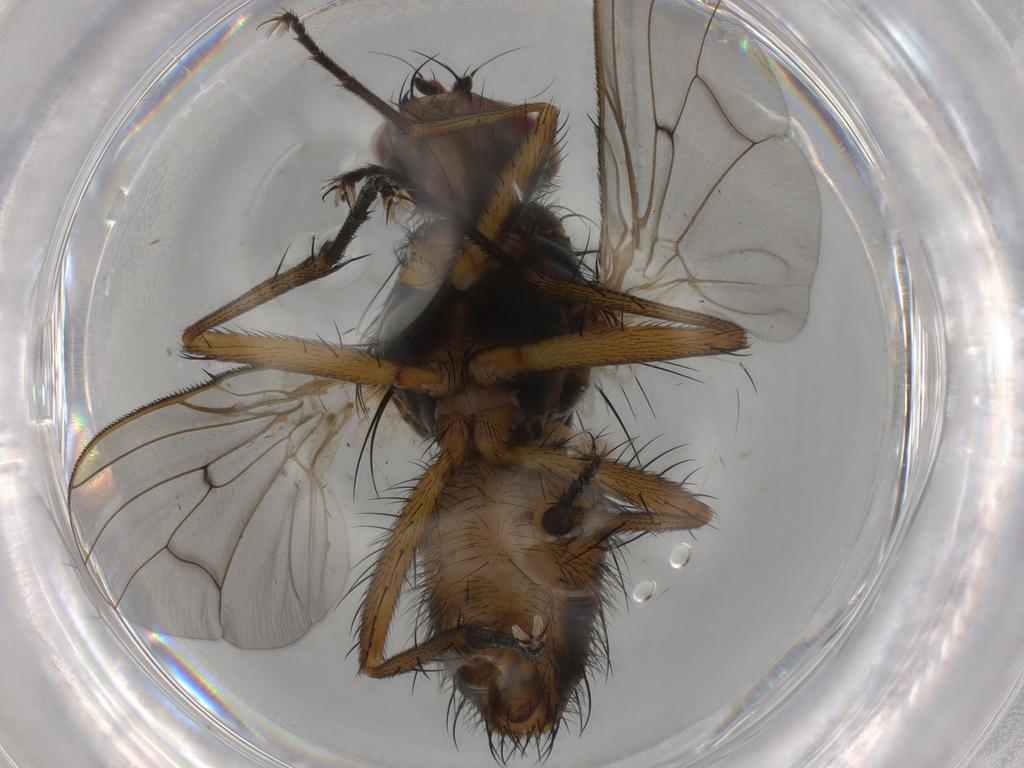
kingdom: Animalia
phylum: Arthropoda
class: Insecta
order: Diptera
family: Anthomyiidae
